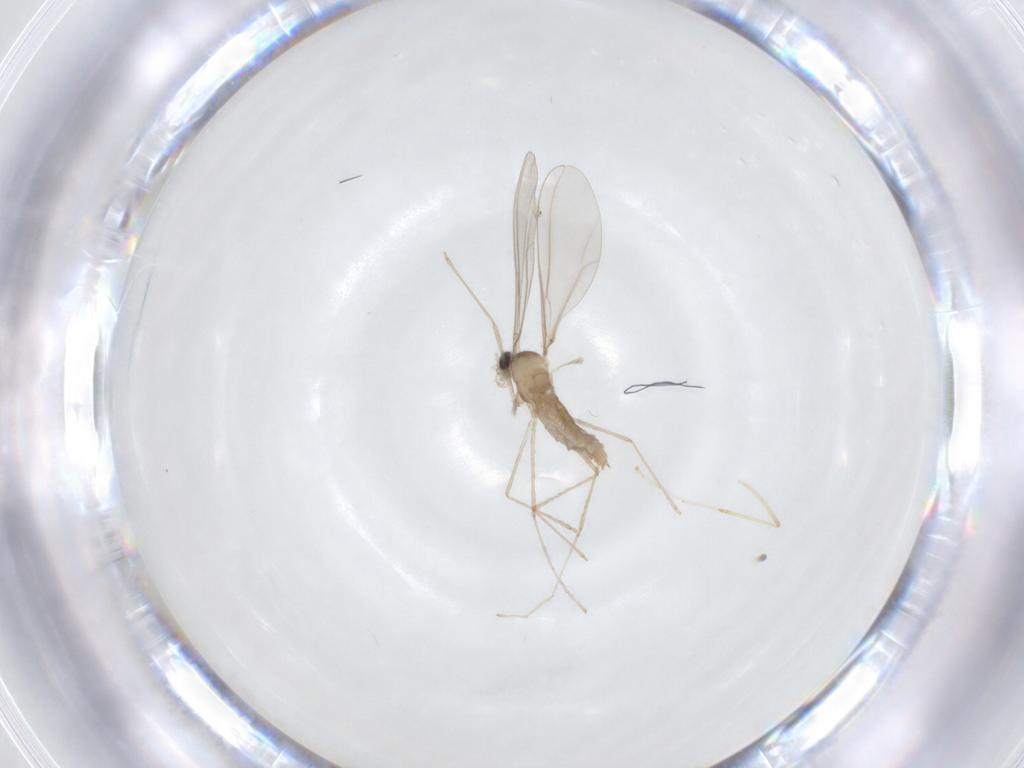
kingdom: Animalia
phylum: Arthropoda
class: Insecta
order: Diptera
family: Cecidomyiidae
